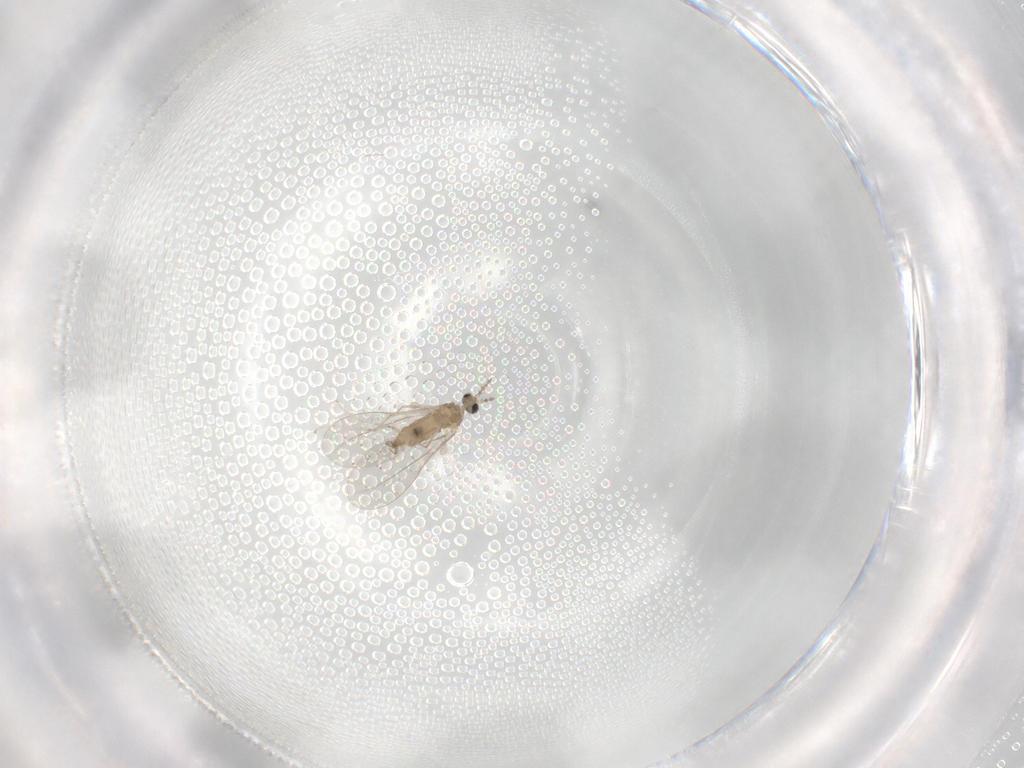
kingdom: Animalia
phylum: Arthropoda
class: Insecta
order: Diptera
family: Cecidomyiidae
